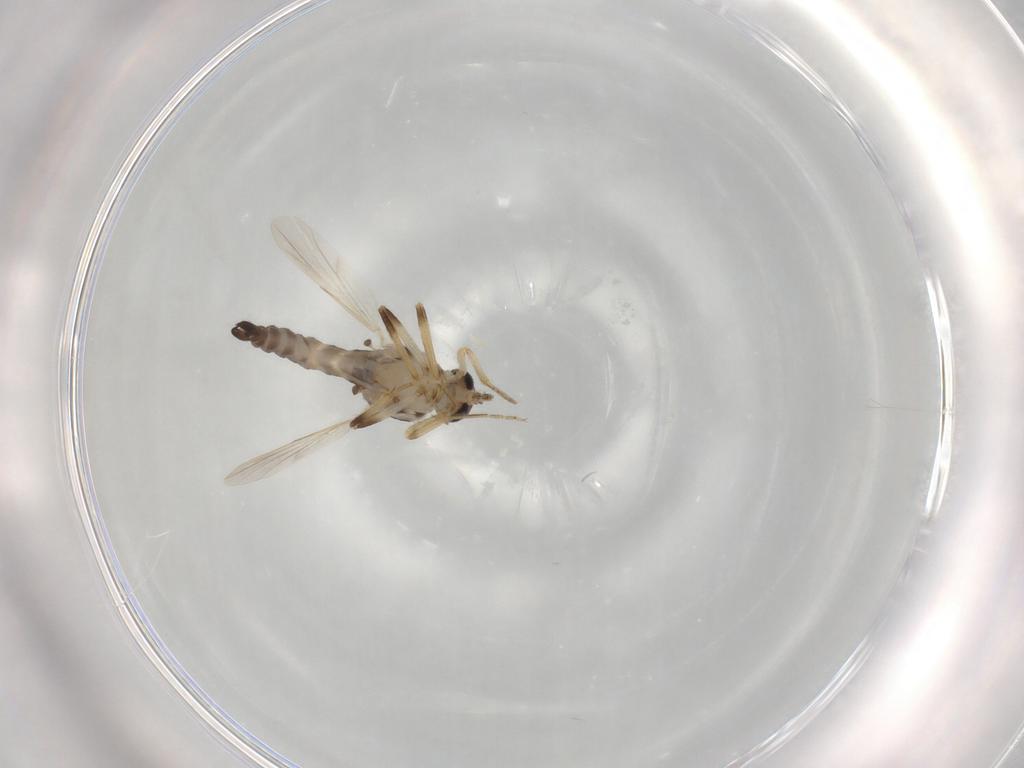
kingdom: Animalia
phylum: Arthropoda
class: Insecta
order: Diptera
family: Ceratopogonidae
